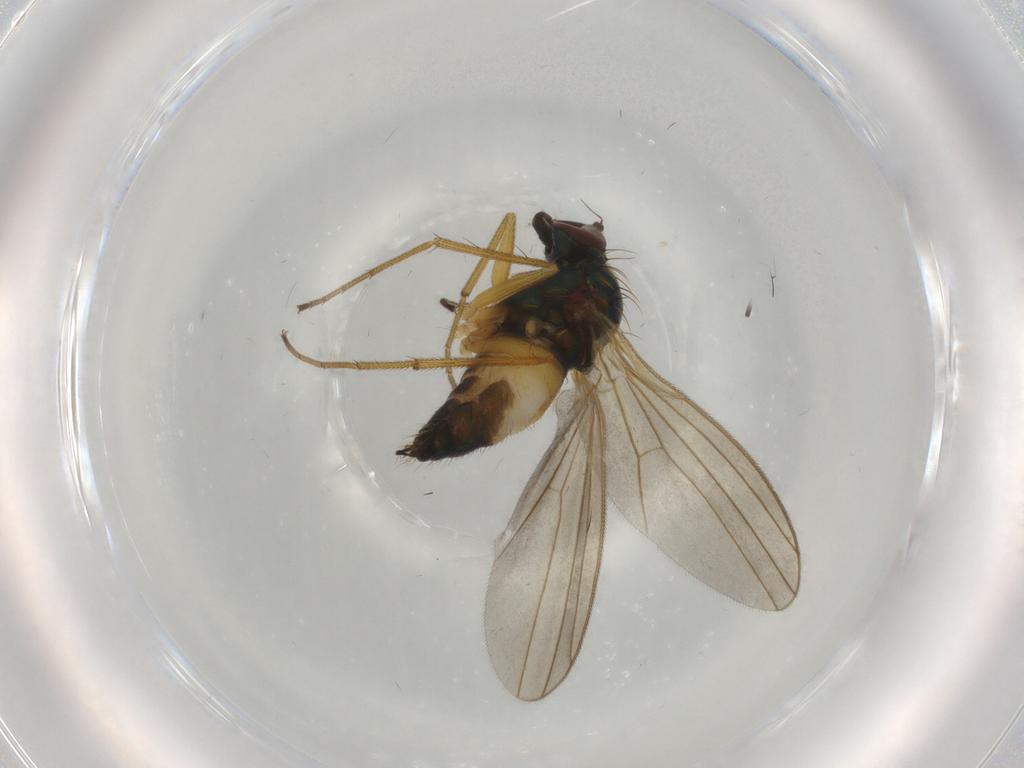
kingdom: Animalia
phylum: Arthropoda
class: Insecta
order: Diptera
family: Dolichopodidae
